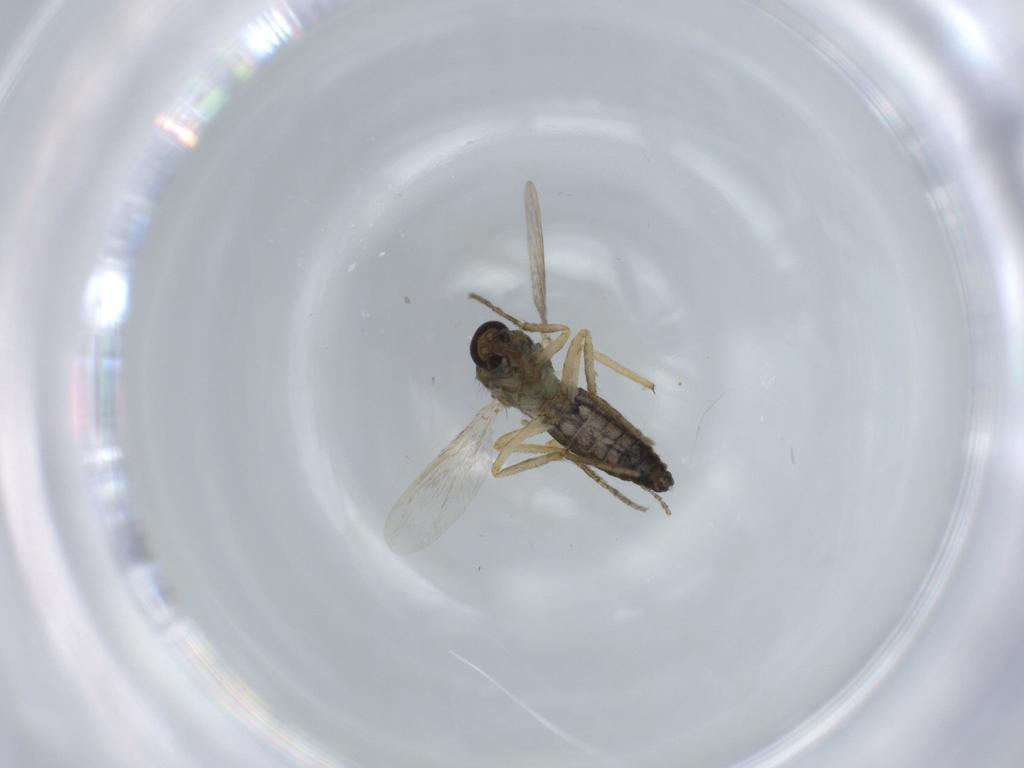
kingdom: Animalia
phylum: Arthropoda
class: Insecta
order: Diptera
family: Ceratopogonidae
